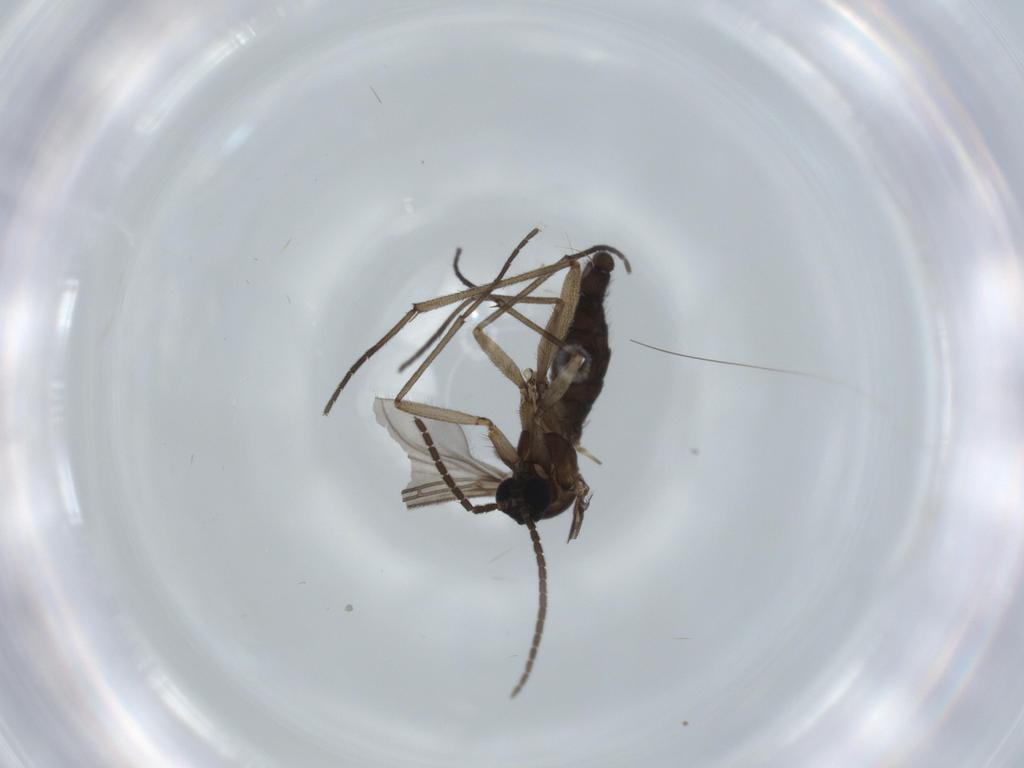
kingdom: Animalia
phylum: Arthropoda
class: Insecta
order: Diptera
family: Sciaridae
